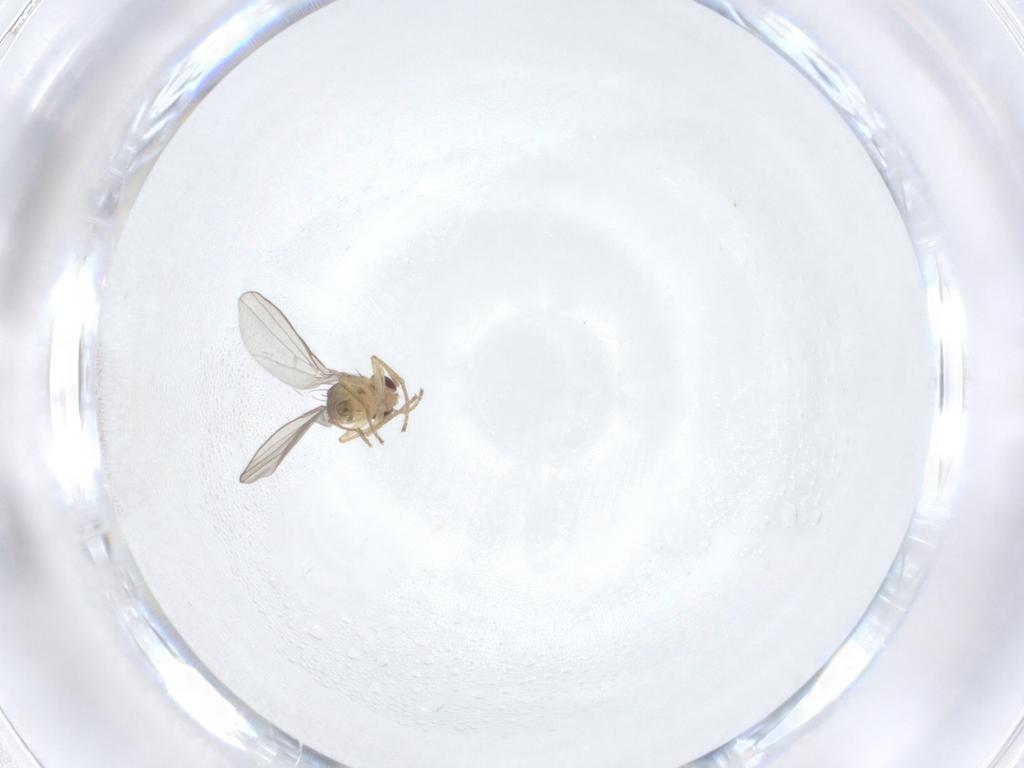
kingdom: Animalia
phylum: Arthropoda
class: Insecta
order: Diptera
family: Agromyzidae
